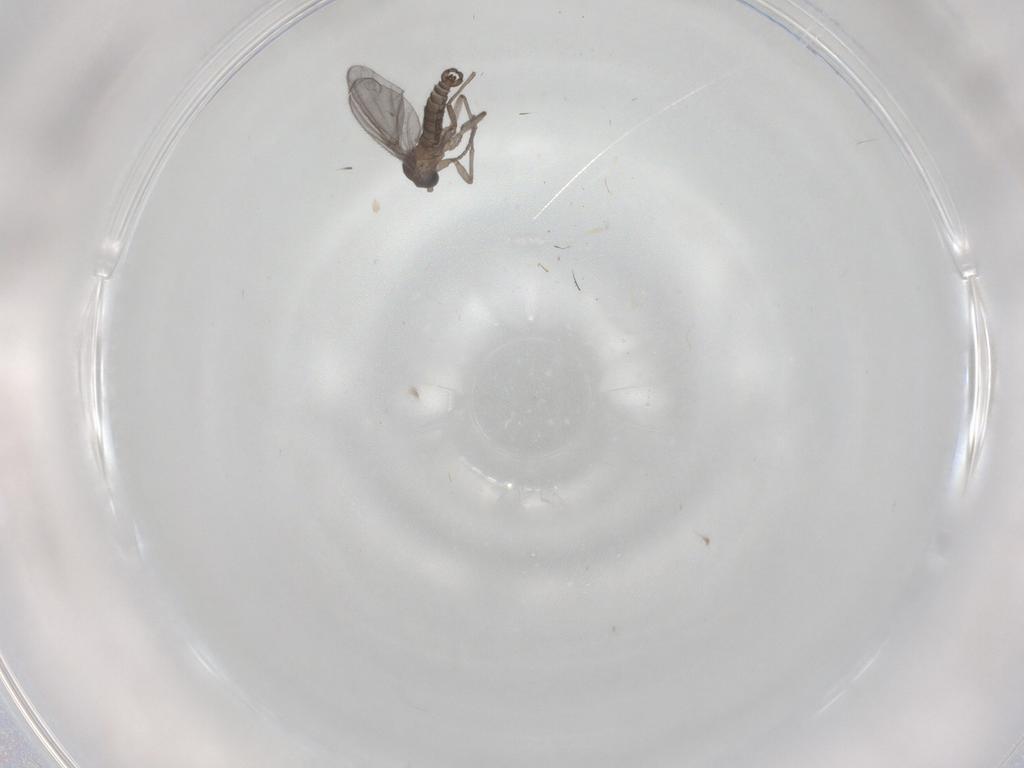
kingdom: Animalia
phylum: Arthropoda
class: Insecta
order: Diptera
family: Sciaridae
